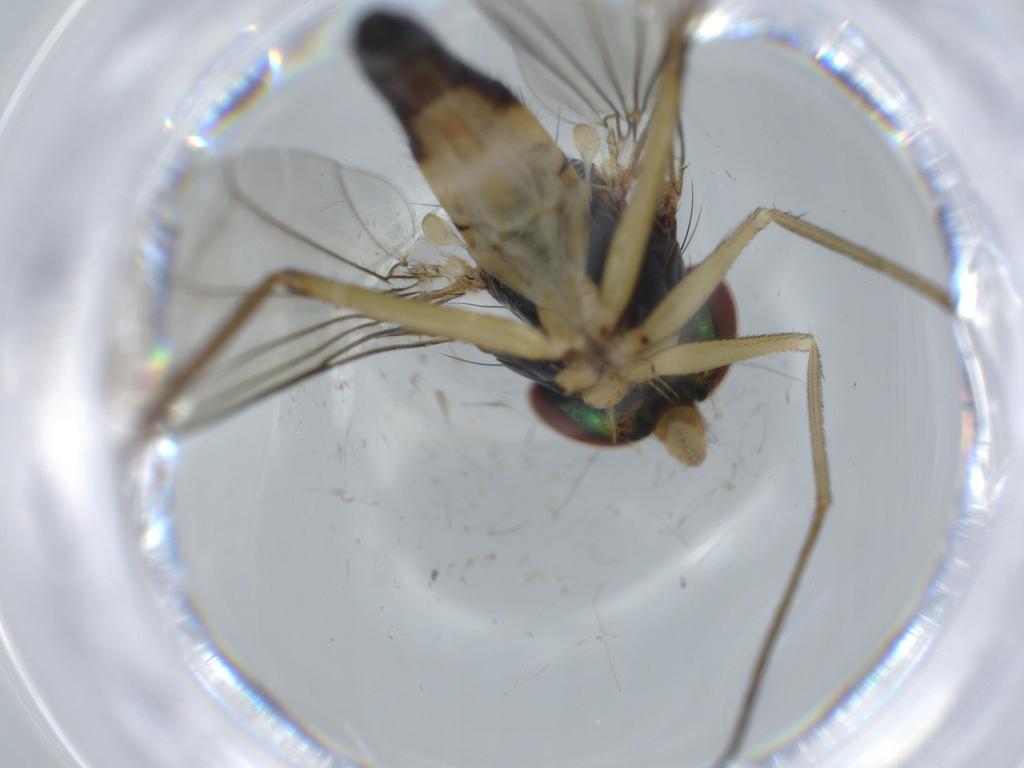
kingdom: Animalia
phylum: Arthropoda
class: Insecta
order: Diptera
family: Dolichopodidae
